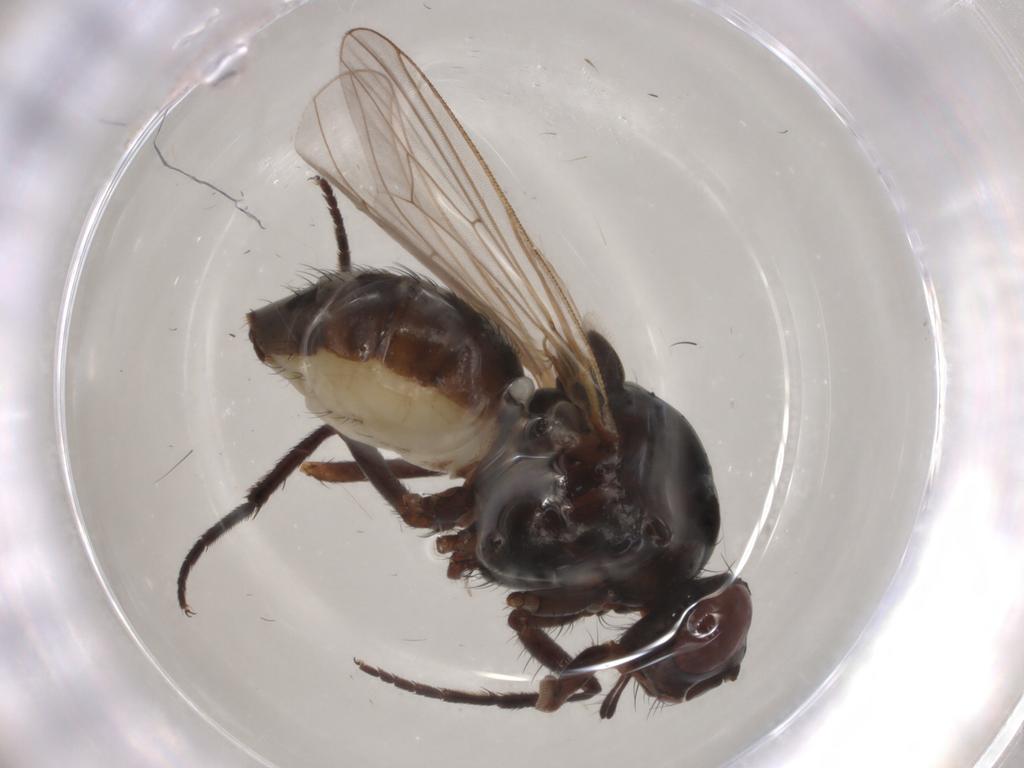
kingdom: Animalia
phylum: Arthropoda
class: Insecta
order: Diptera
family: Anthomyiidae
